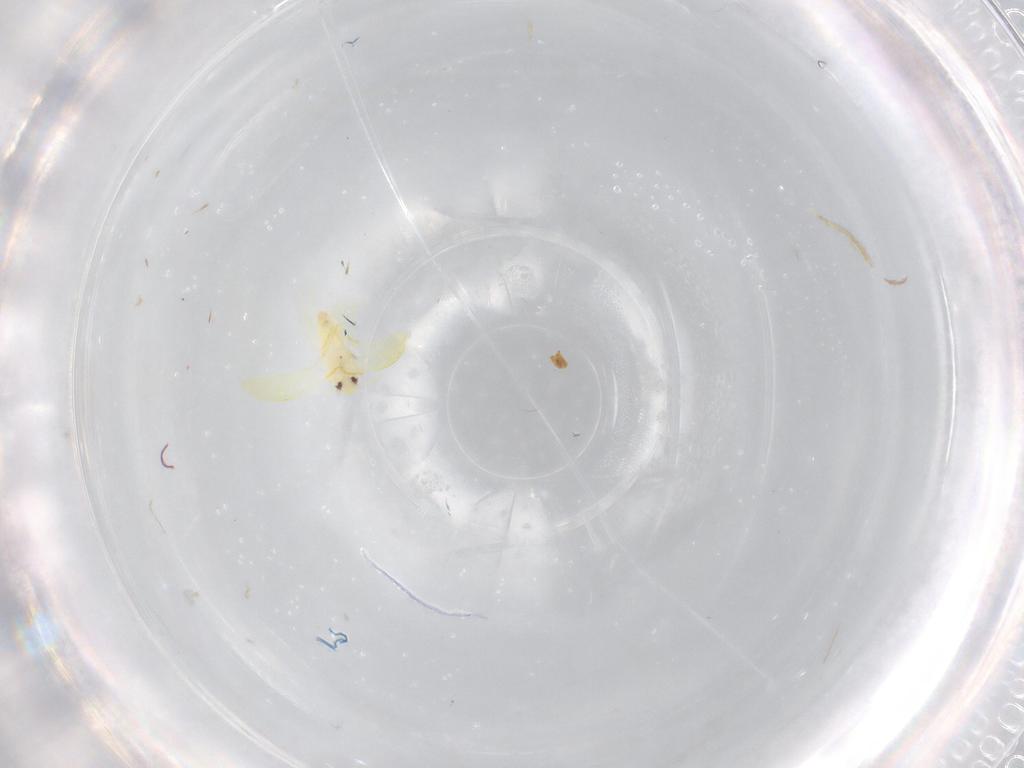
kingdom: Animalia
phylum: Arthropoda
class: Insecta
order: Hemiptera
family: Aleyrodidae
